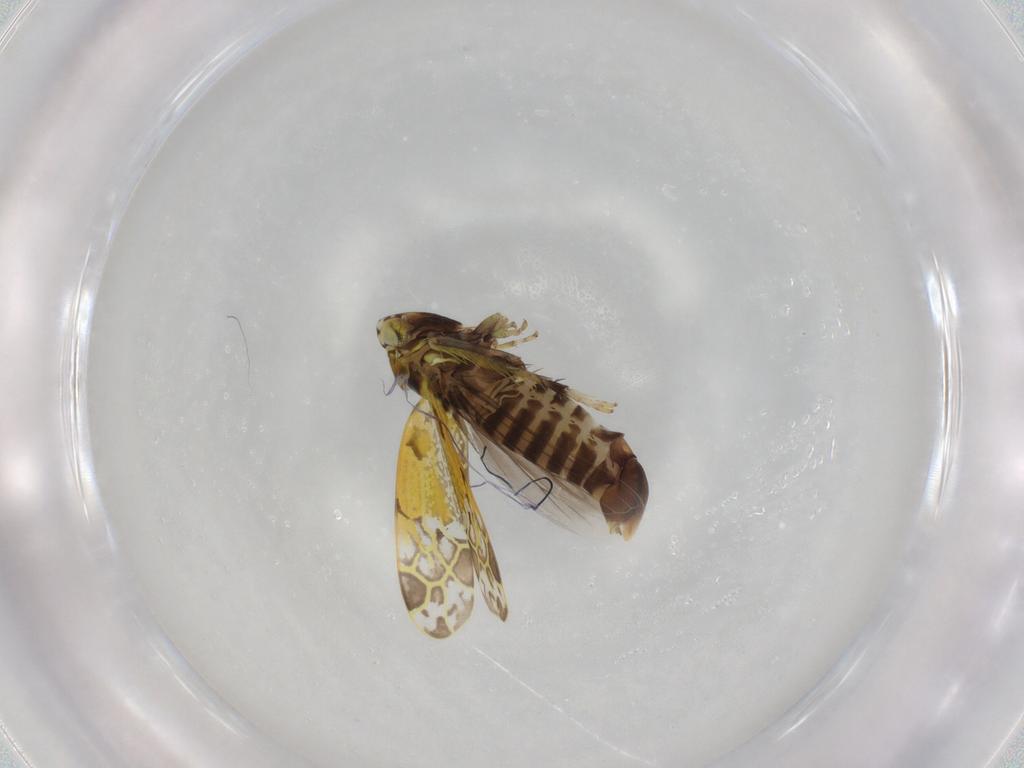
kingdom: Animalia
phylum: Arthropoda
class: Insecta
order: Hemiptera
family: Cicadellidae
